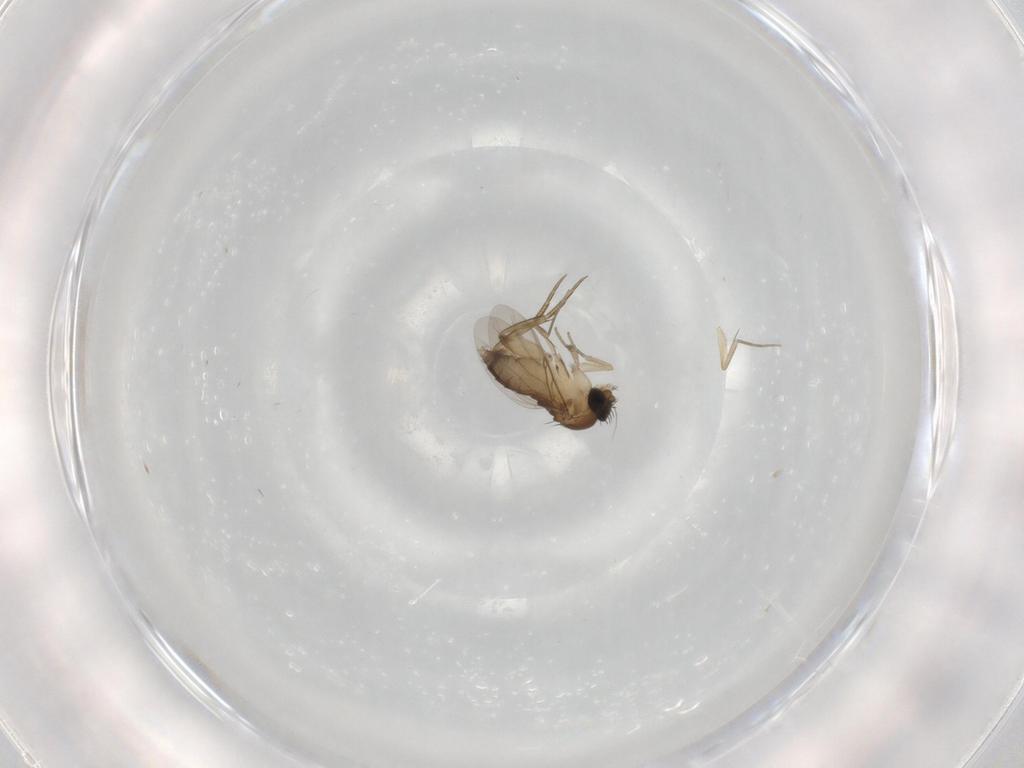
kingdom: Animalia
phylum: Arthropoda
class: Insecta
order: Diptera
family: Phoridae
